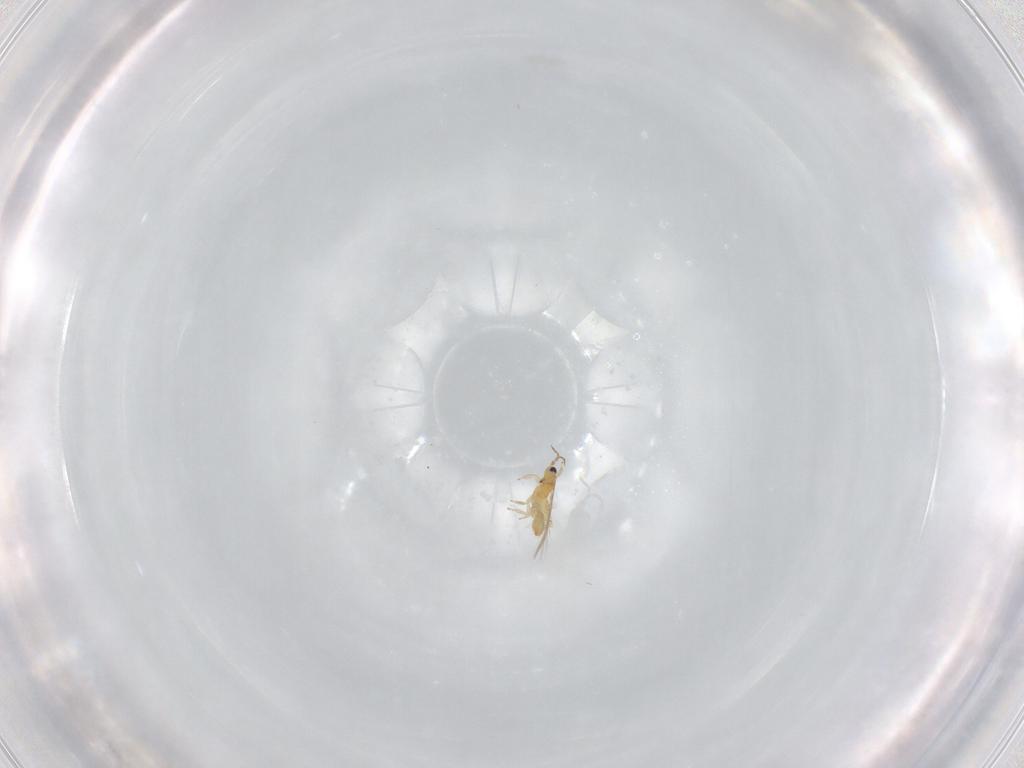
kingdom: Animalia
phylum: Arthropoda
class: Insecta
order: Thysanoptera
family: Thripidae
